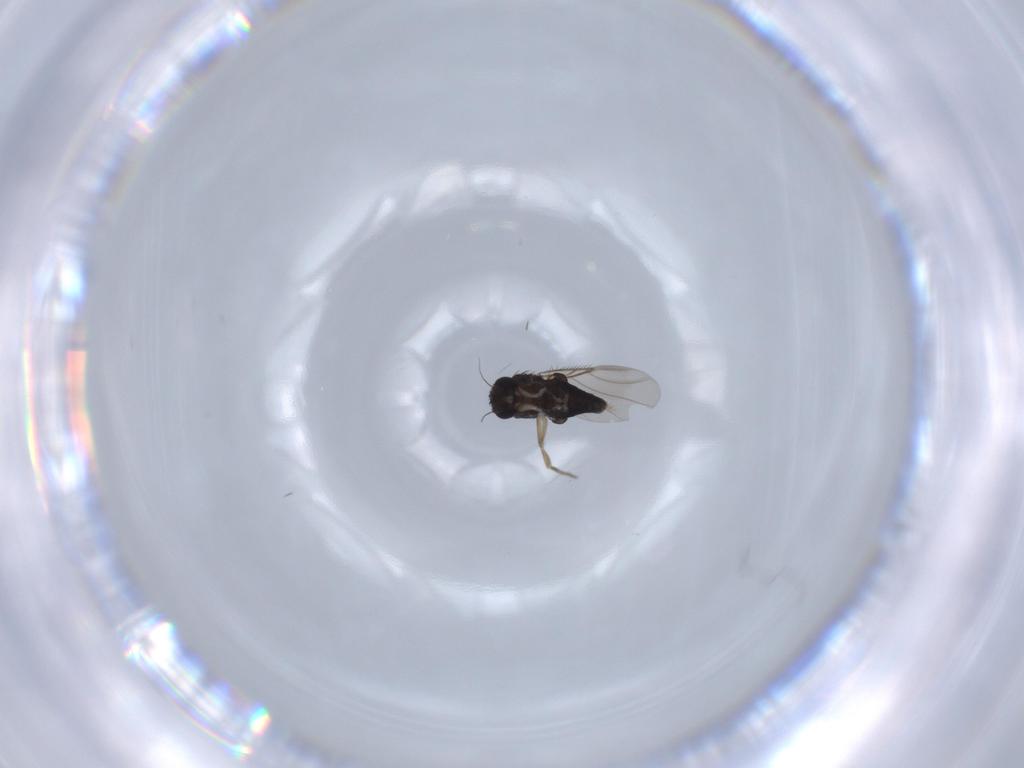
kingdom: Animalia
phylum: Arthropoda
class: Insecta
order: Diptera
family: Phoridae
